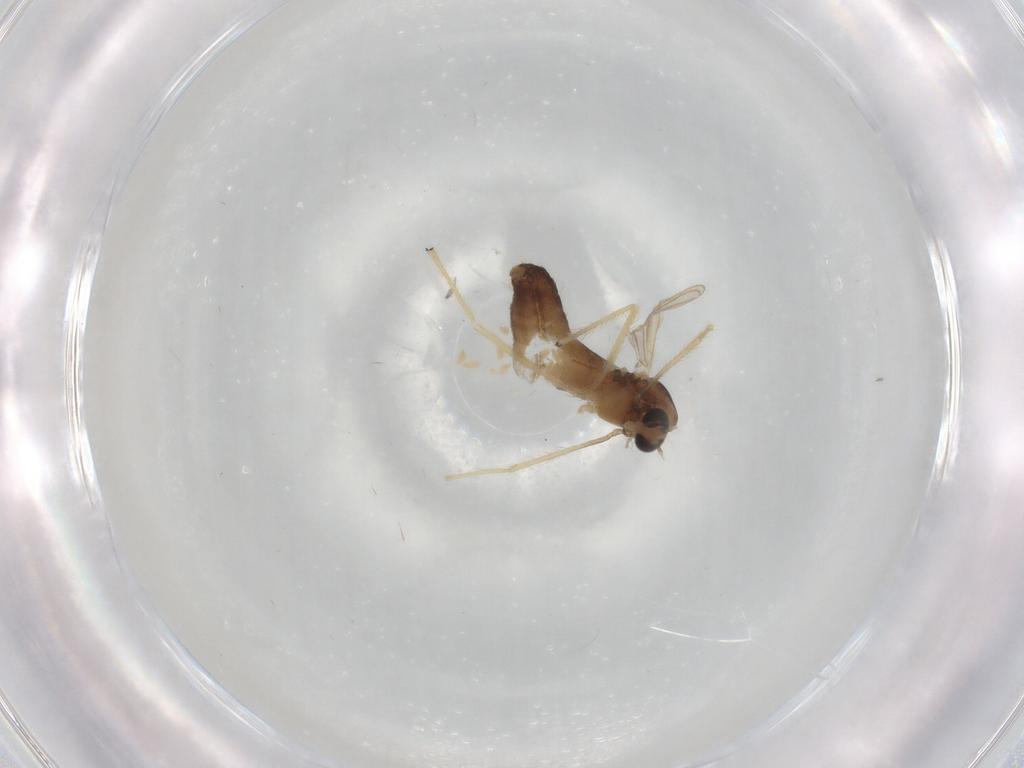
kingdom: Animalia
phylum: Arthropoda
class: Insecta
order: Diptera
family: Chironomidae
